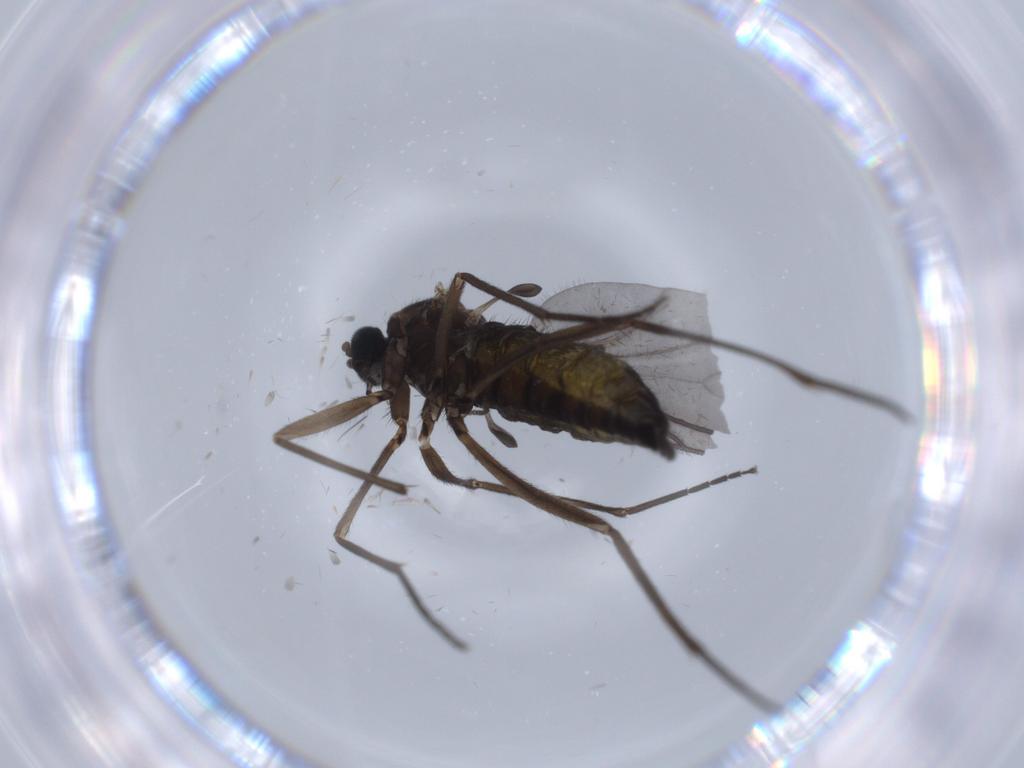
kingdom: Animalia
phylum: Arthropoda
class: Insecta
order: Diptera
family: Sciaridae
